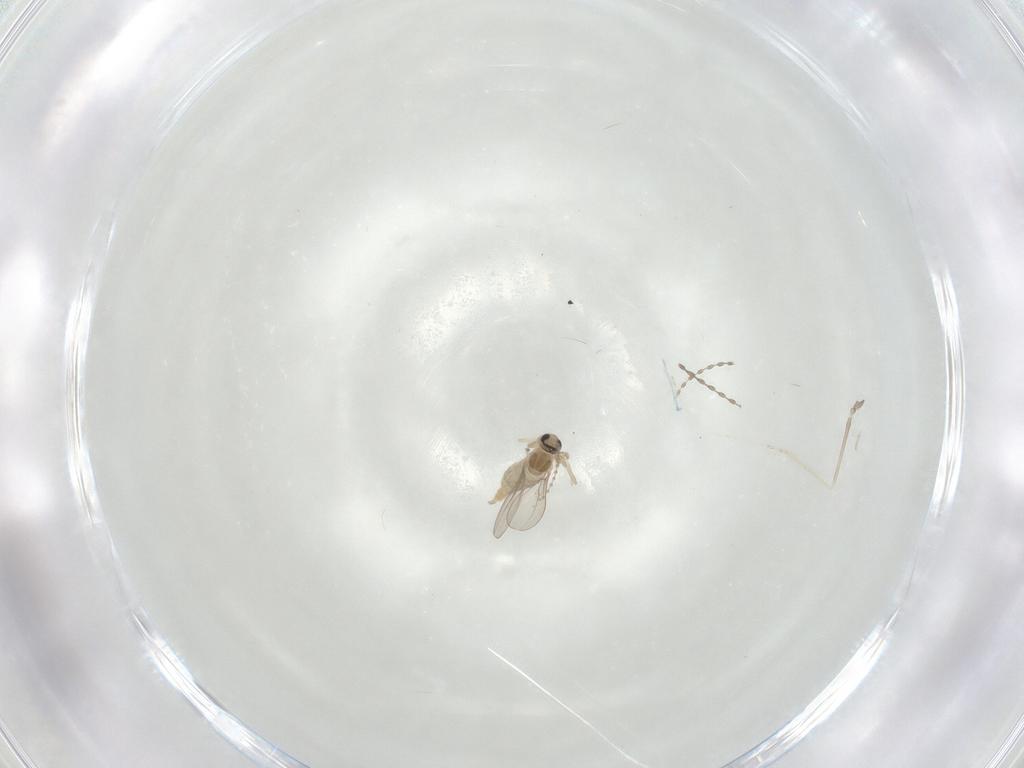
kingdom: Animalia
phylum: Arthropoda
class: Insecta
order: Diptera
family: Cecidomyiidae
